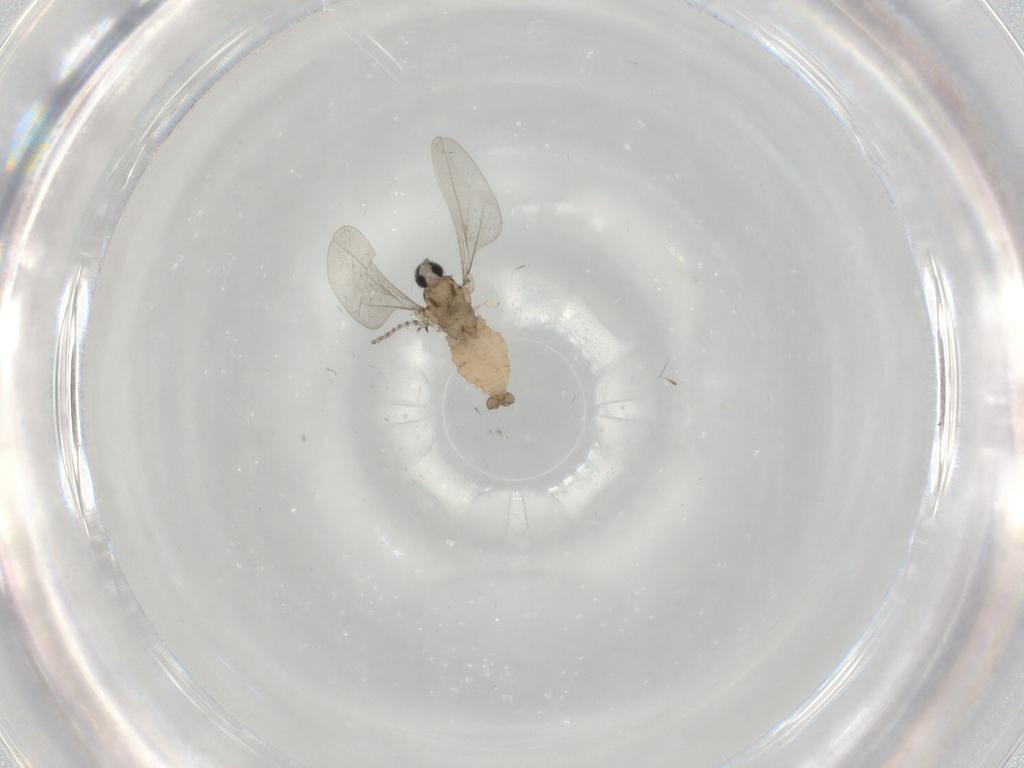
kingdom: Animalia
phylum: Arthropoda
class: Insecta
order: Diptera
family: Cecidomyiidae
